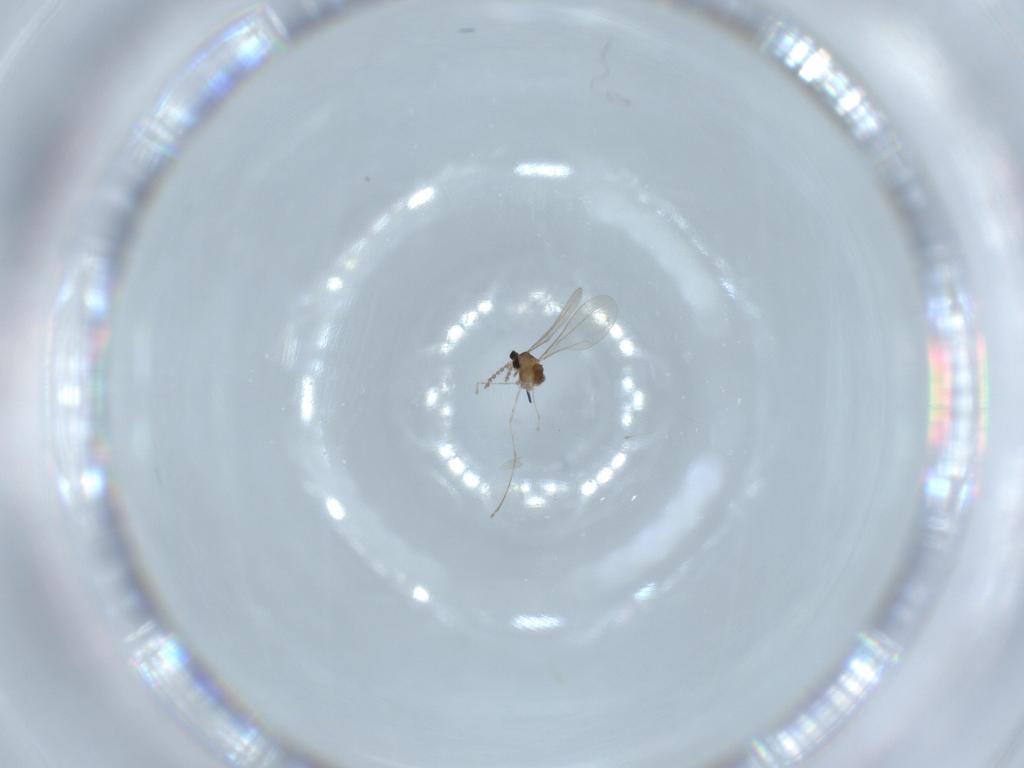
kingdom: Animalia
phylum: Arthropoda
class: Insecta
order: Diptera
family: Cecidomyiidae
